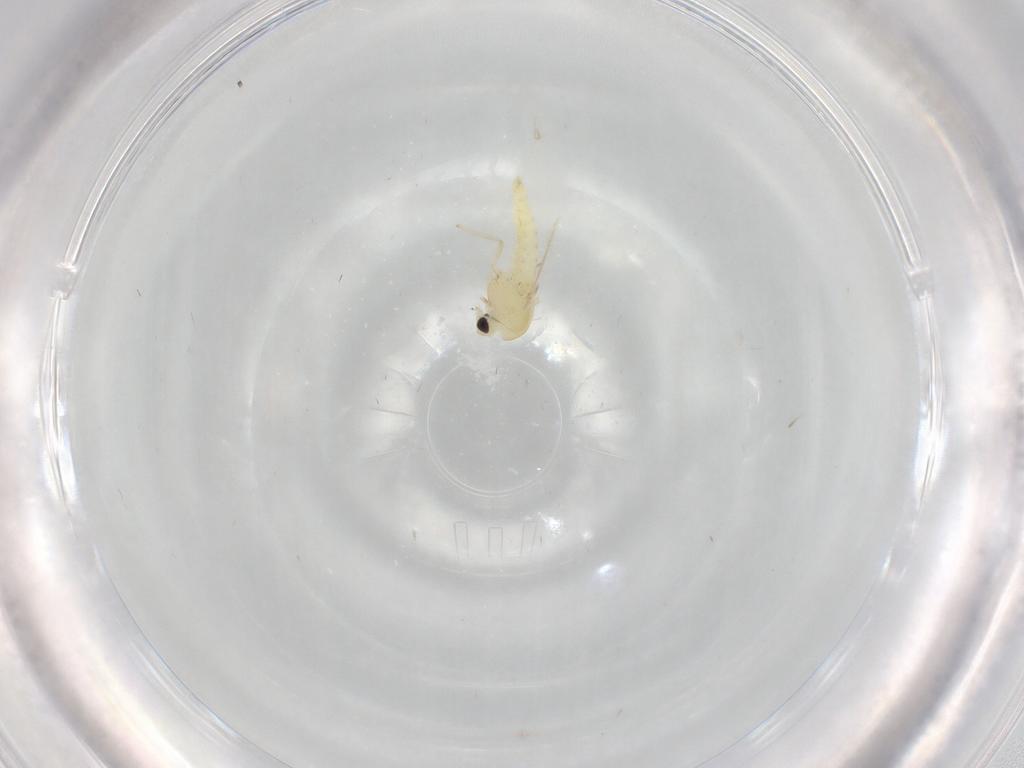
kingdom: Animalia
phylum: Arthropoda
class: Insecta
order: Diptera
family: Chironomidae
